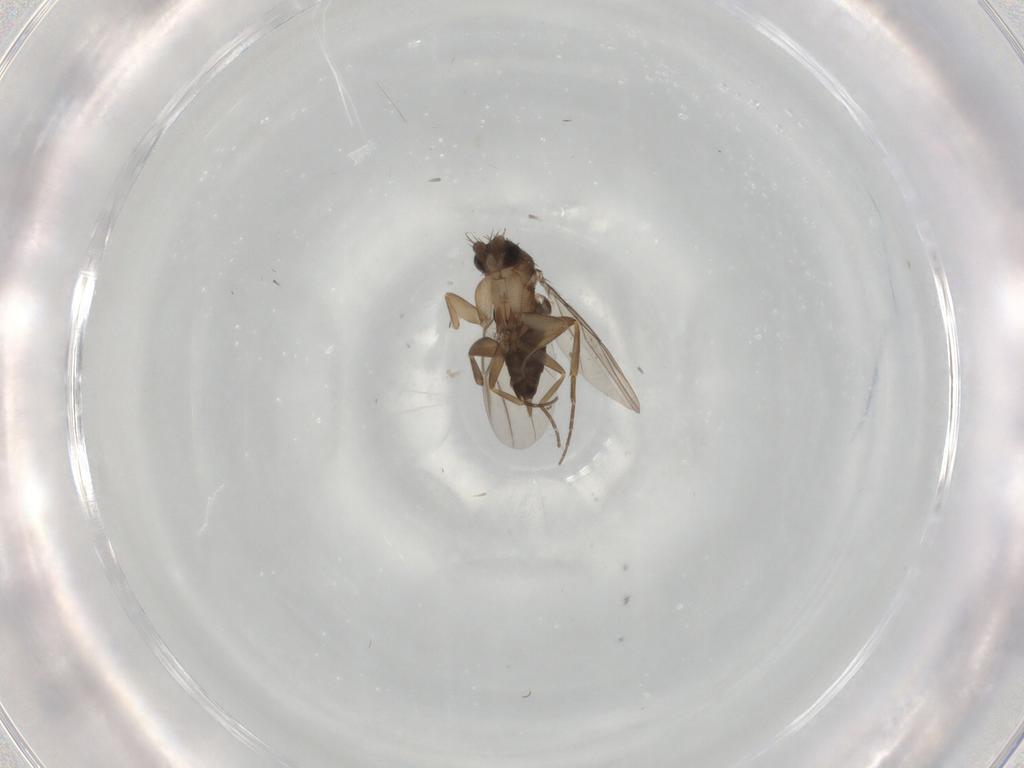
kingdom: Animalia
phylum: Arthropoda
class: Insecta
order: Diptera
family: Phoridae
